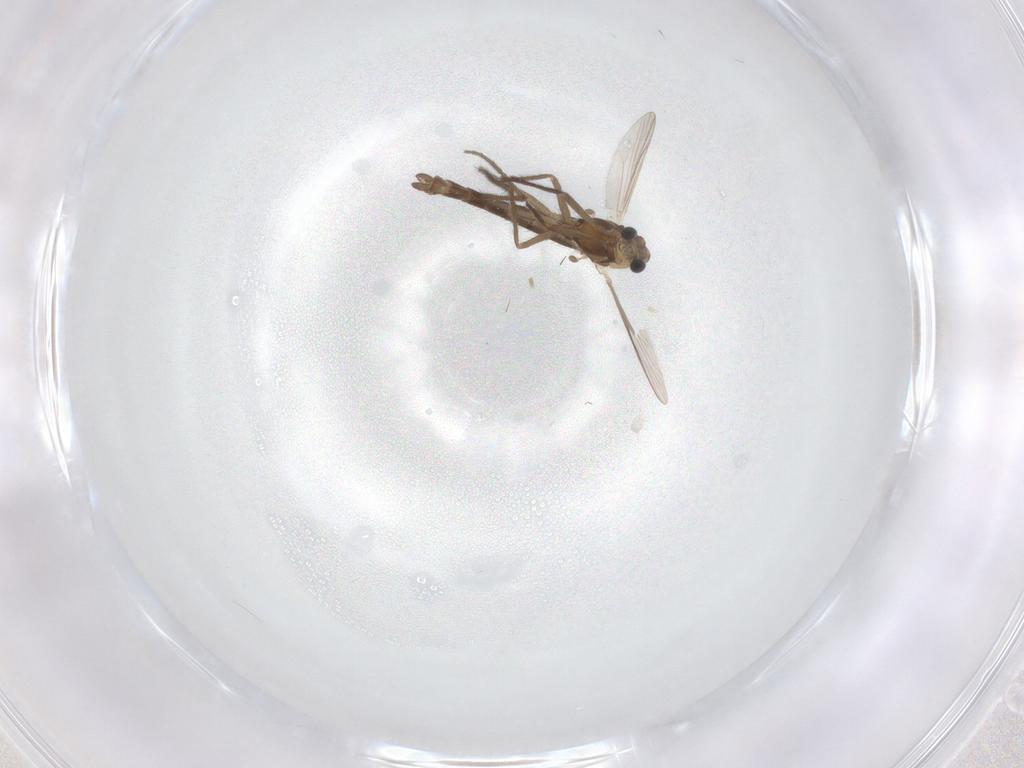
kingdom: Animalia
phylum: Arthropoda
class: Insecta
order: Diptera
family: Chironomidae
